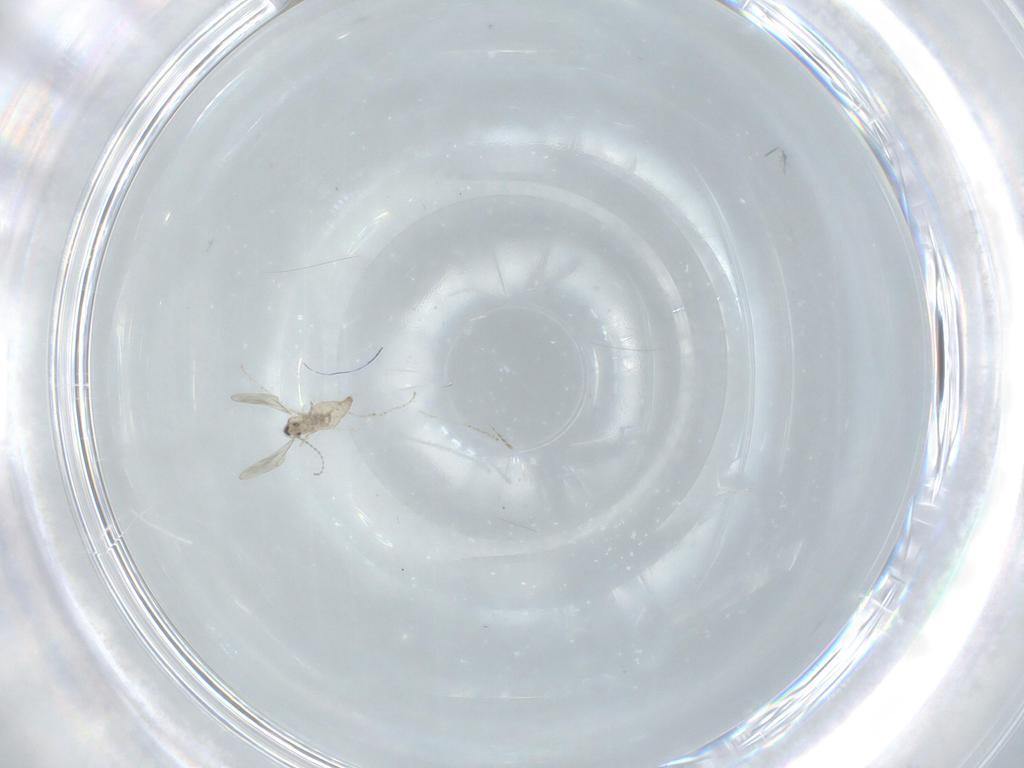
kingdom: Animalia
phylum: Arthropoda
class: Insecta
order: Diptera
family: Cecidomyiidae
